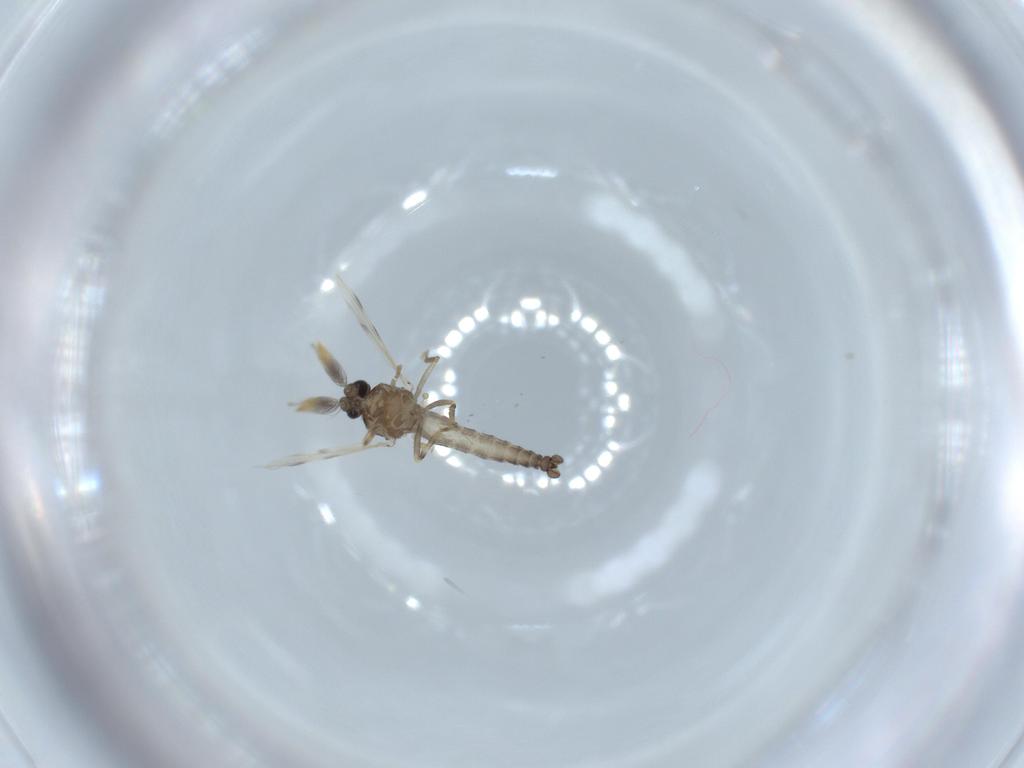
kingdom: Animalia
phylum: Arthropoda
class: Insecta
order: Diptera
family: Ceratopogonidae
